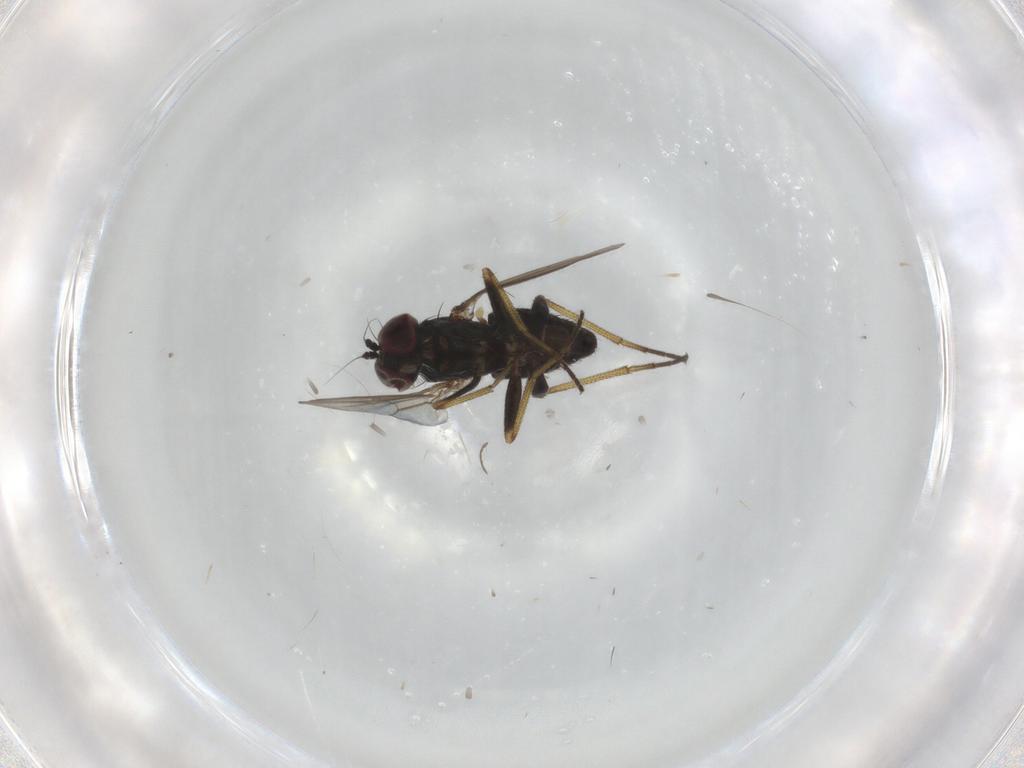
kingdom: Animalia
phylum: Arthropoda
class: Insecta
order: Diptera
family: Dolichopodidae
